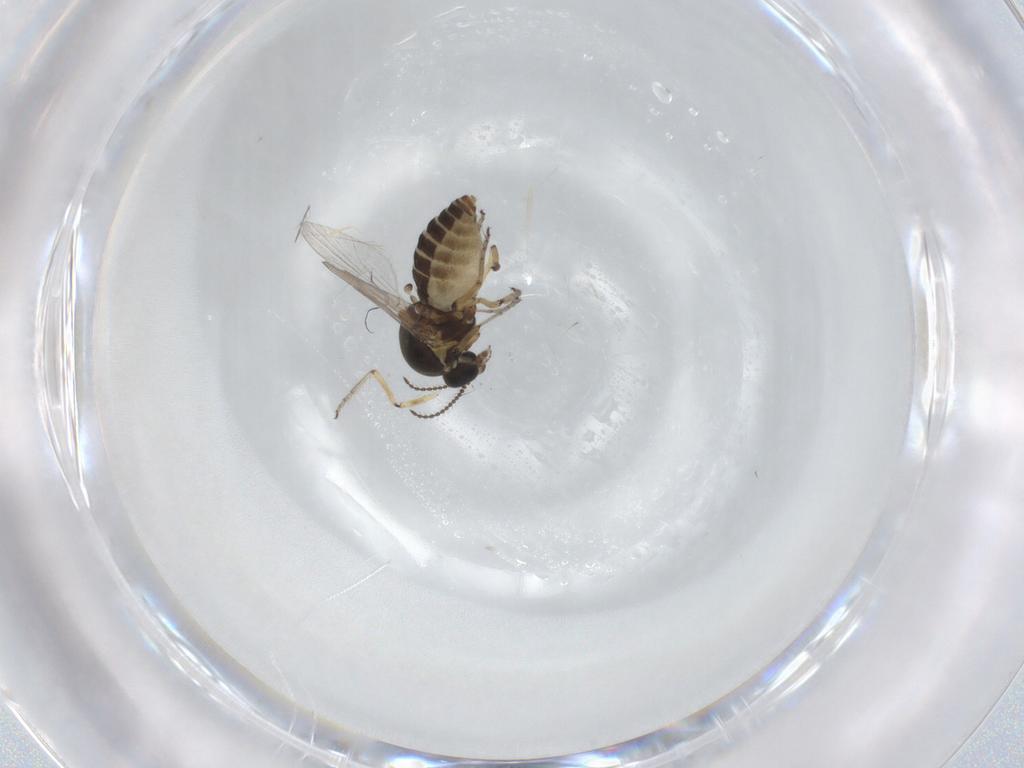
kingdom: Animalia
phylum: Arthropoda
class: Insecta
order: Diptera
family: Ceratopogonidae
